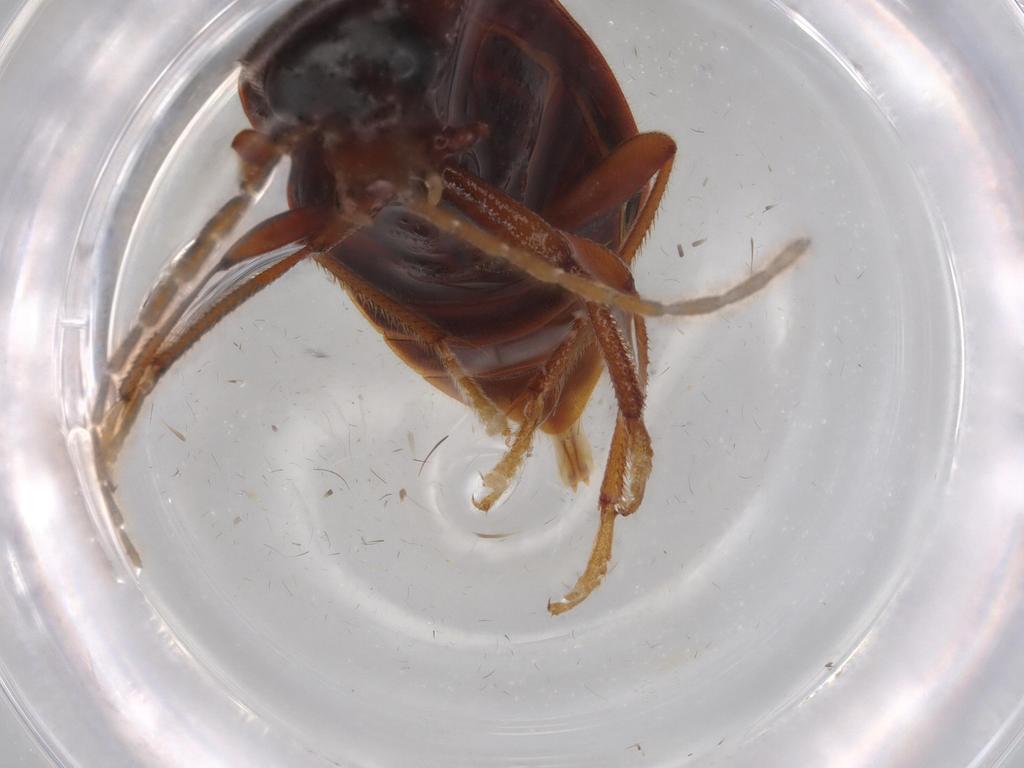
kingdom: Animalia
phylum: Arthropoda
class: Insecta
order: Coleoptera
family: Ptilodactylidae
